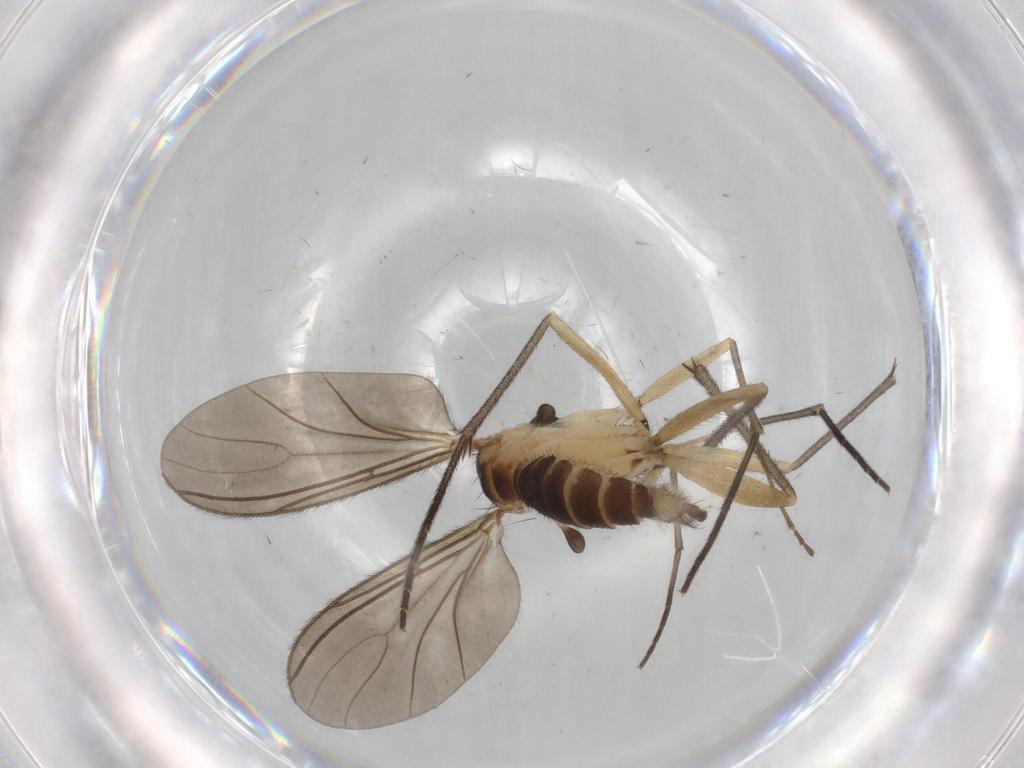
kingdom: Animalia
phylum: Arthropoda
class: Insecta
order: Diptera
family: Sciaridae
